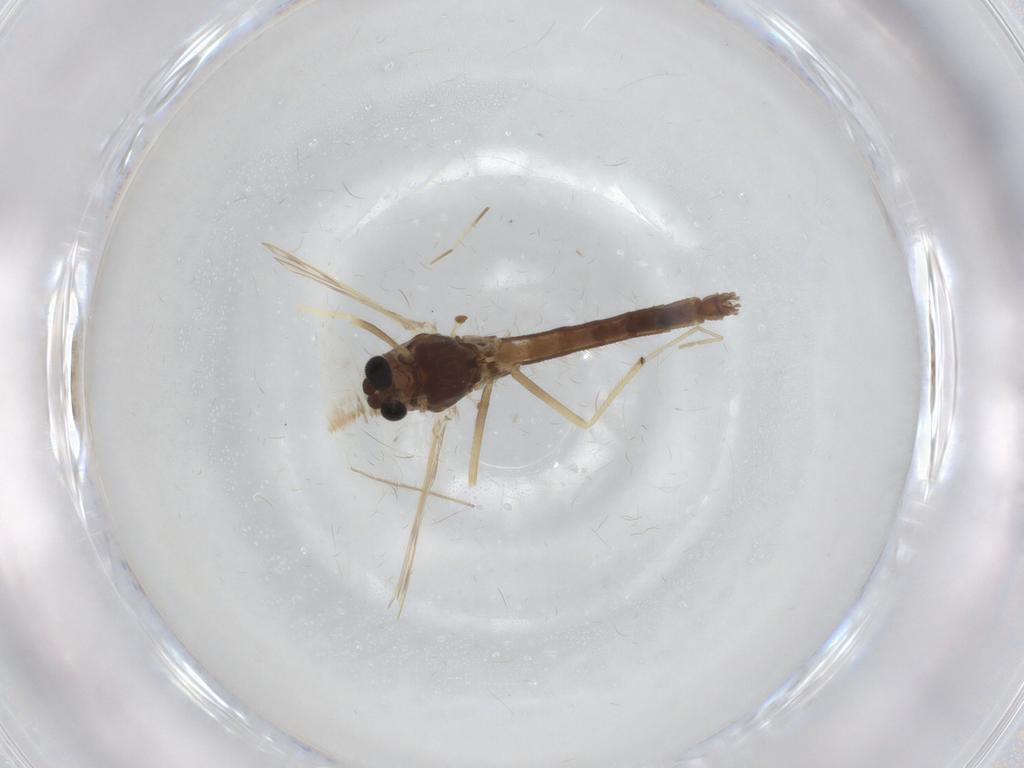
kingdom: Animalia
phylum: Arthropoda
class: Insecta
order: Diptera
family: Chironomidae
